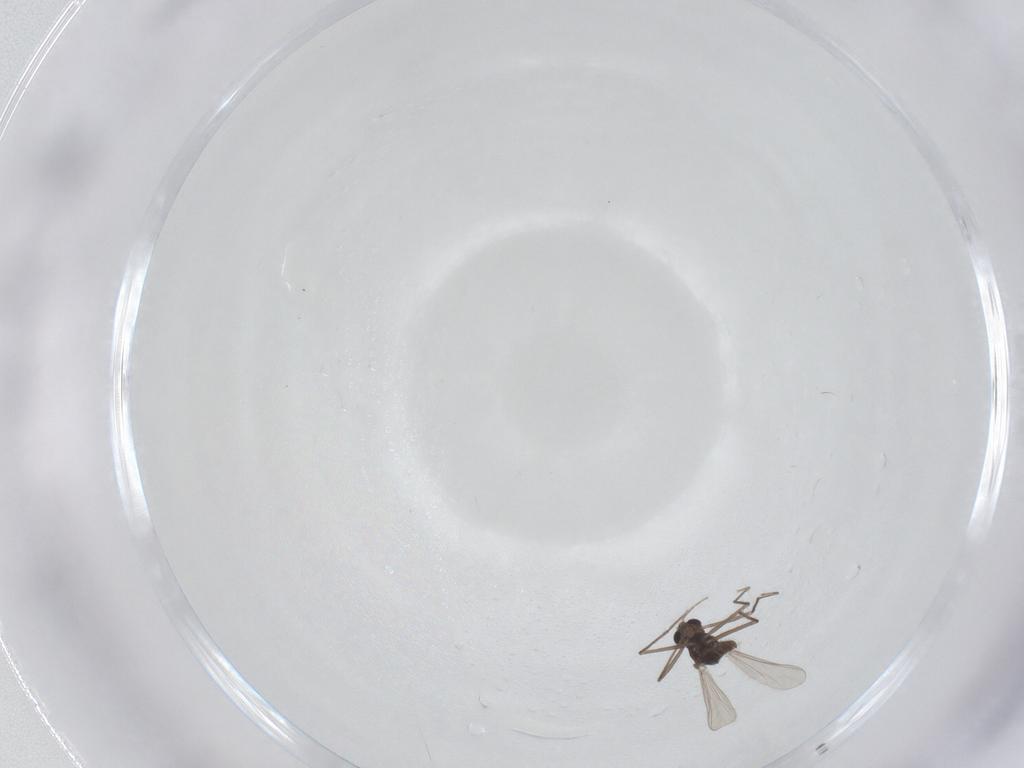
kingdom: Animalia
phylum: Arthropoda
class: Insecta
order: Diptera
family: Chironomidae
